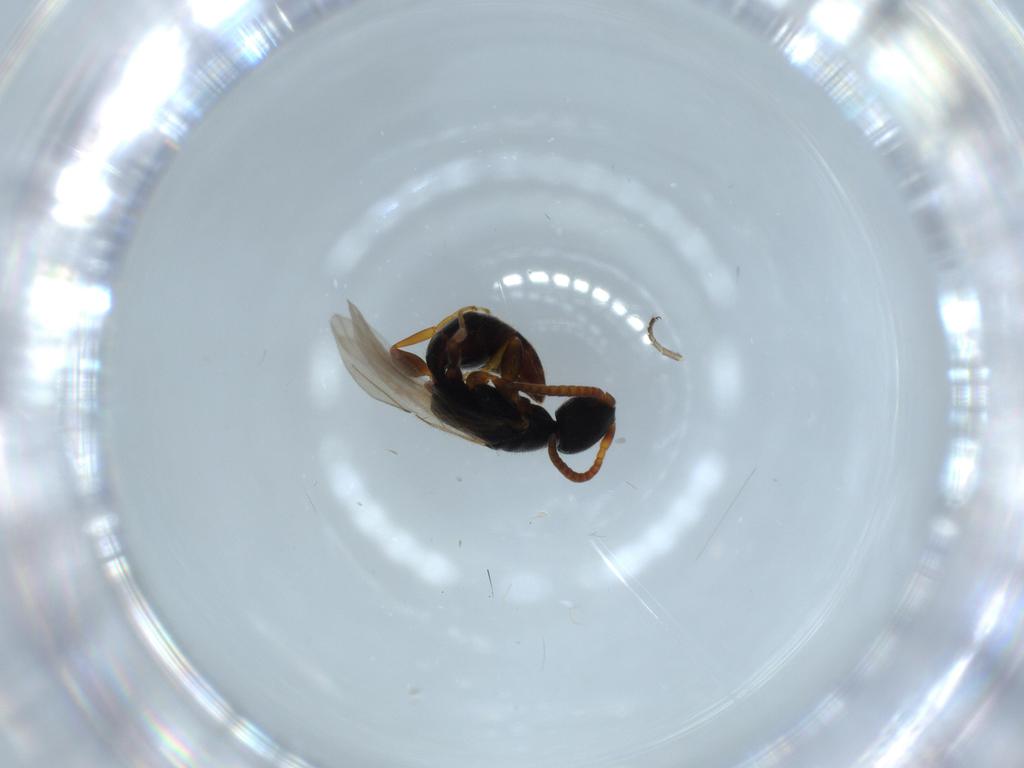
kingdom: Animalia
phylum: Arthropoda
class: Insecta
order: Hymenoptera
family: Bethylidae
